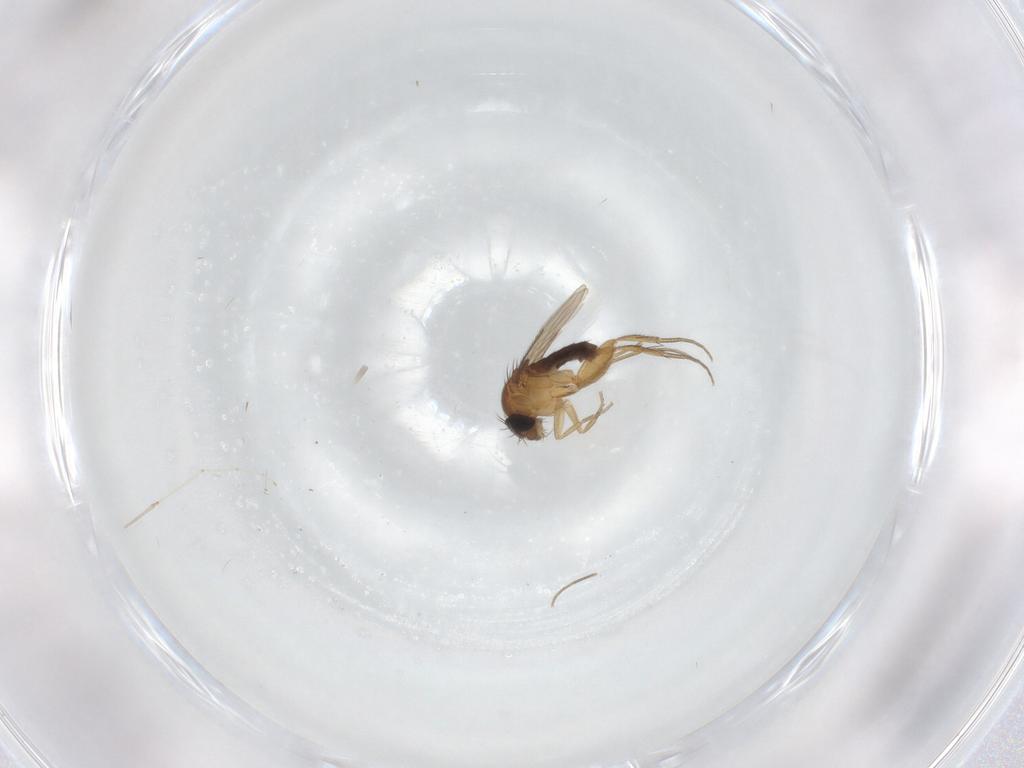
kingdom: Animalia
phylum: Arthropoda
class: Insecta
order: Diptera
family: Phoridae
